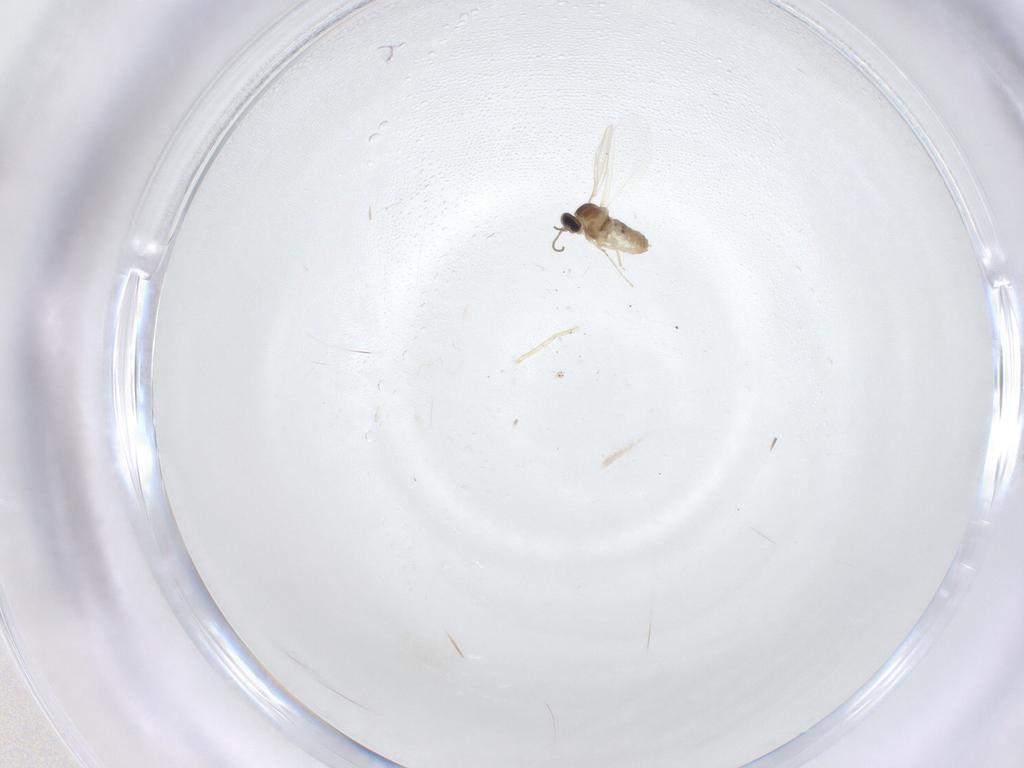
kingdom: Animalia
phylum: Arthropoda
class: Insecta
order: Diptera
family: Cecidomyiidae
